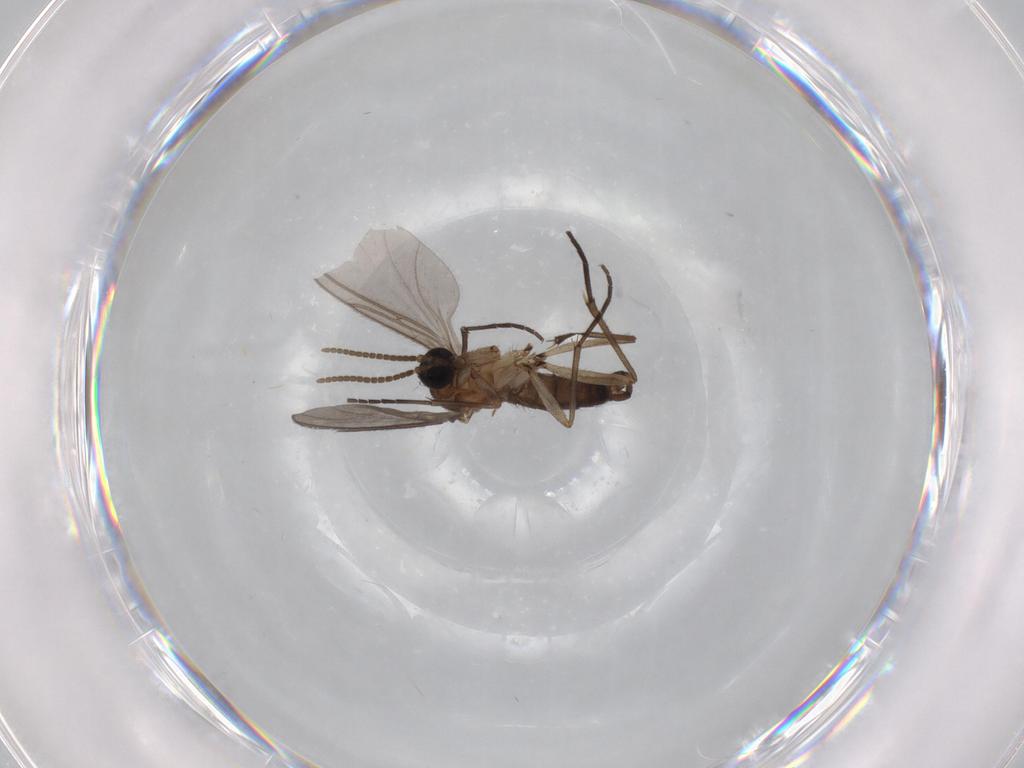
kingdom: Animalia
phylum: Arthropoda
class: Insecta
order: Diptera
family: Sciaridae
